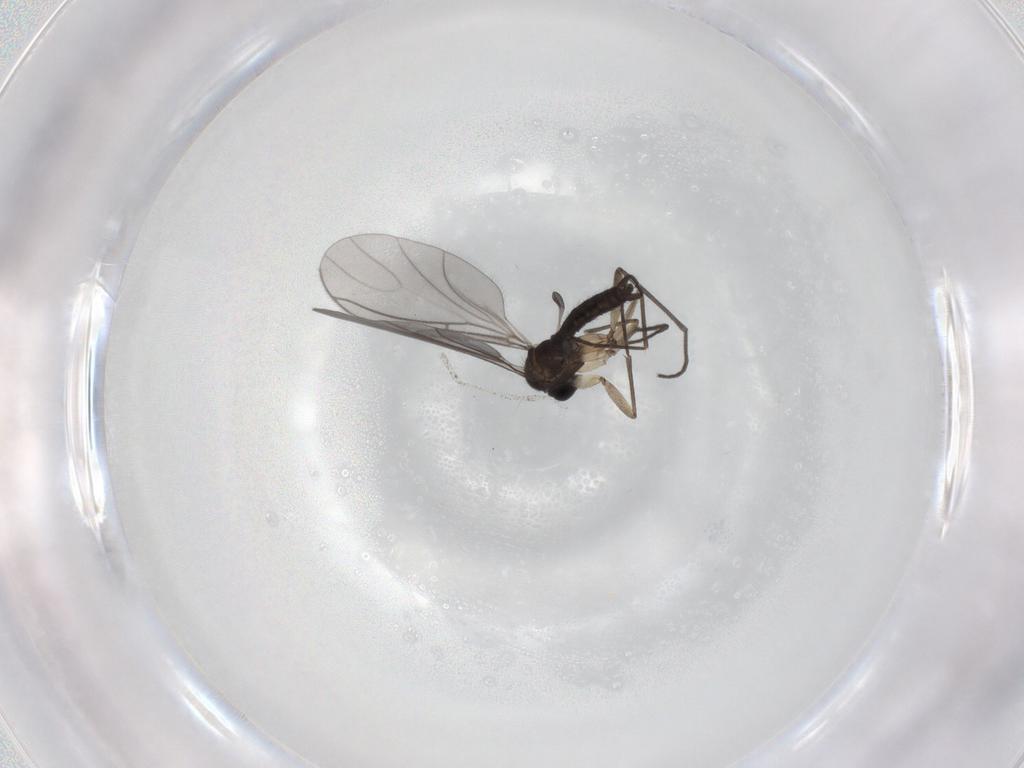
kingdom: Animalia
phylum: Arthropoda
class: Insecta
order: Diptera
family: Sciaridae
